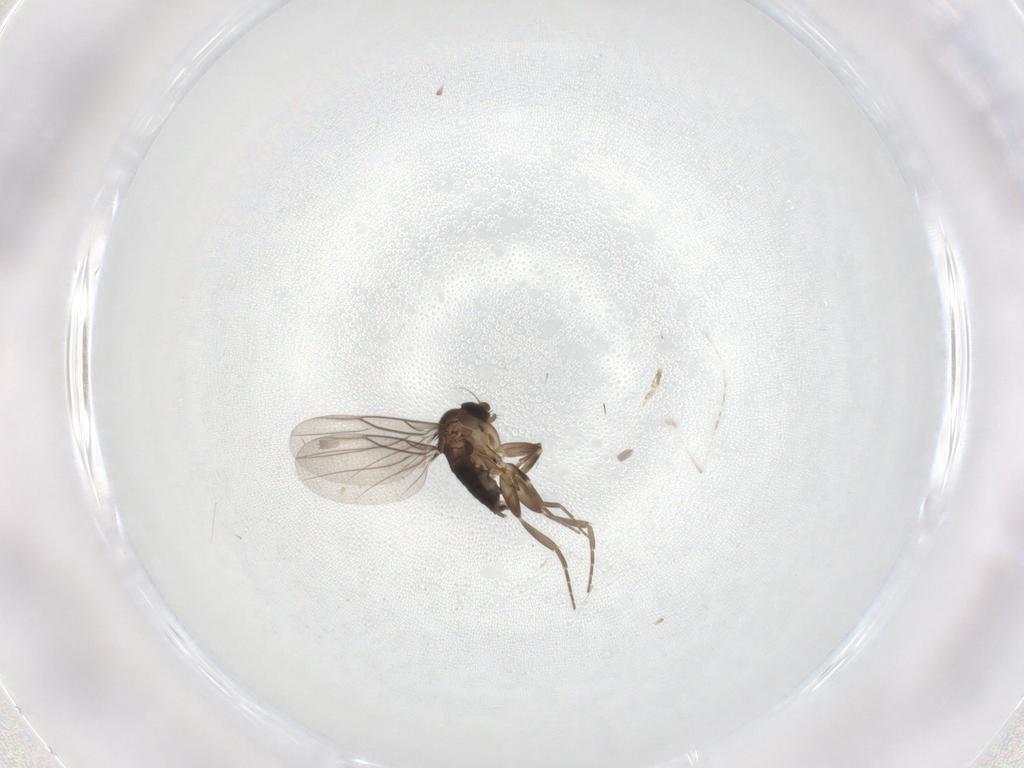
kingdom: Animalia
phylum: Arthropoda
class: Insecta
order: Diptera
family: Cecidomyiidae
